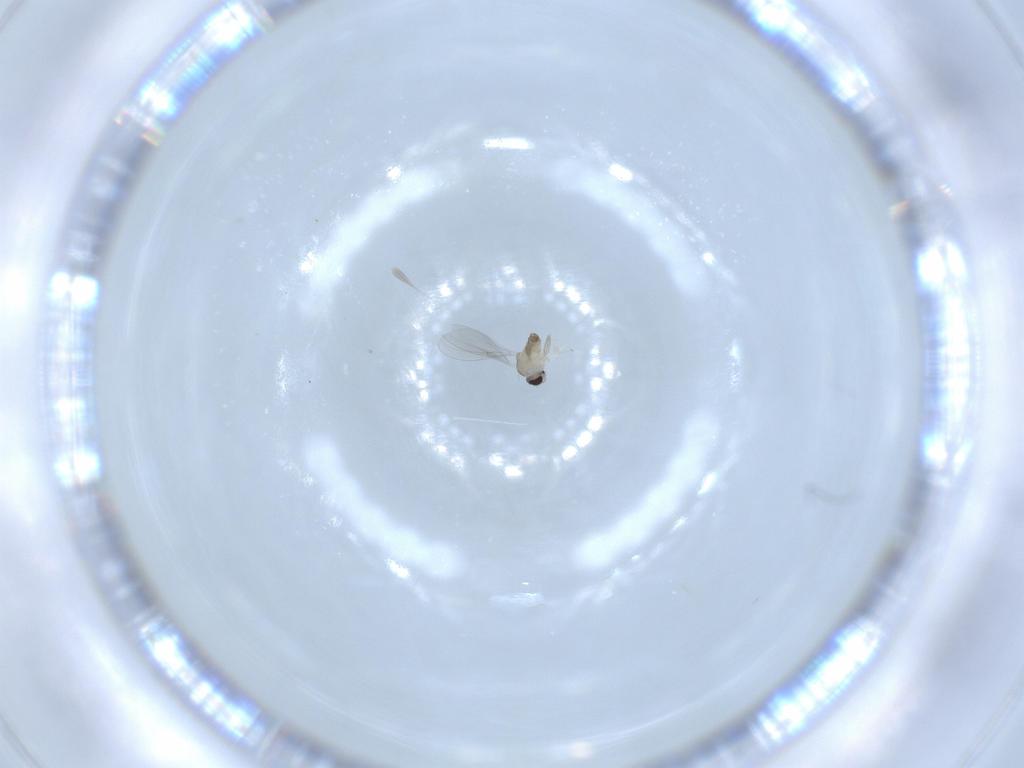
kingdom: Animalia
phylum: Arthropoda
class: Insecta
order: Diptera
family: Cecidomyiidae
